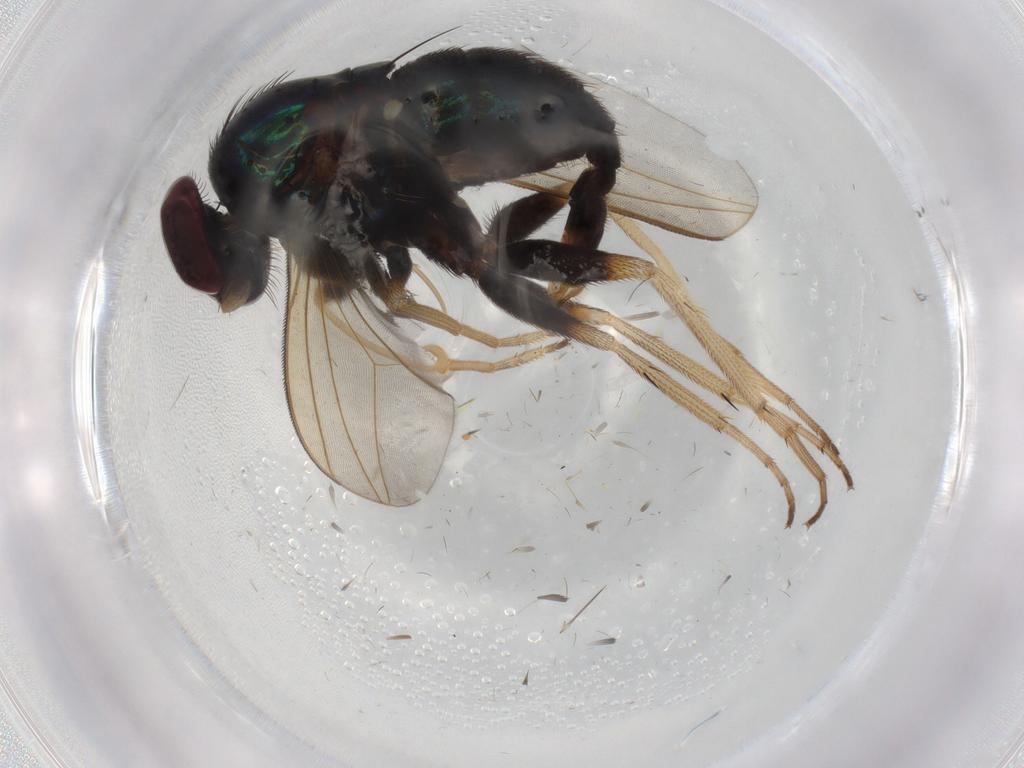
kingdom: Animalia
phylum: Arthropoda
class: Insecta
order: Diptera
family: Dolichopodidae
